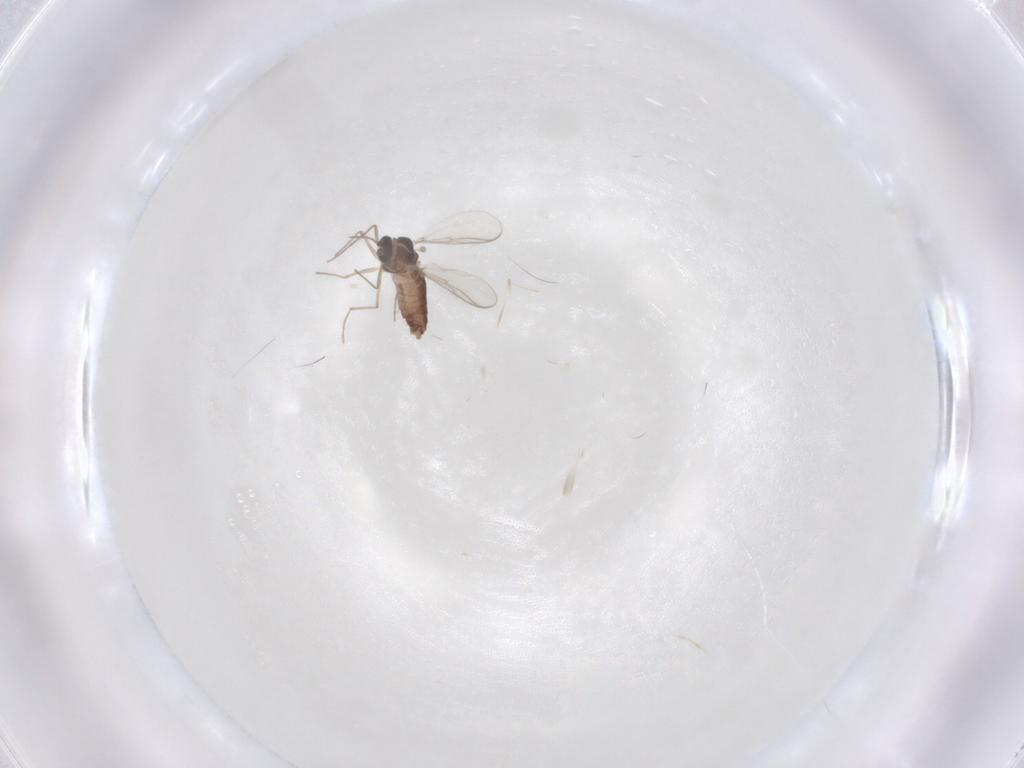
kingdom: Animalia
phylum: Arthropoda
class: Insecta
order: Diptera
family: Chironomidae
